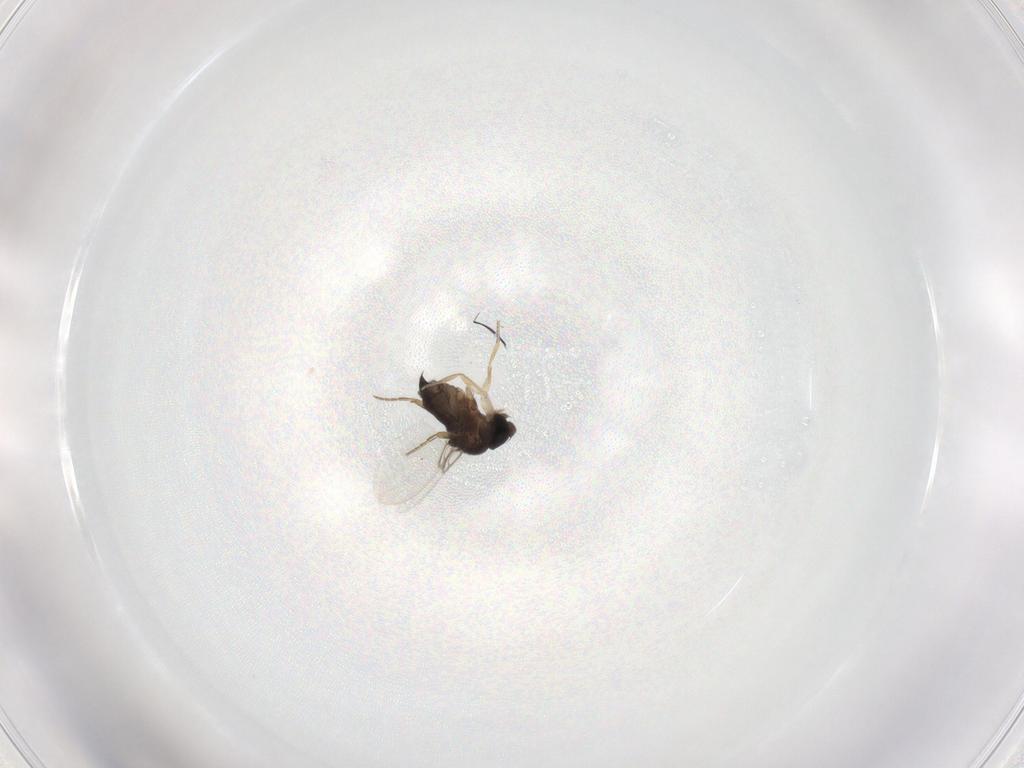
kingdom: Animalia
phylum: Arthropoda
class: Insecta
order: Diptera
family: Phoridae
